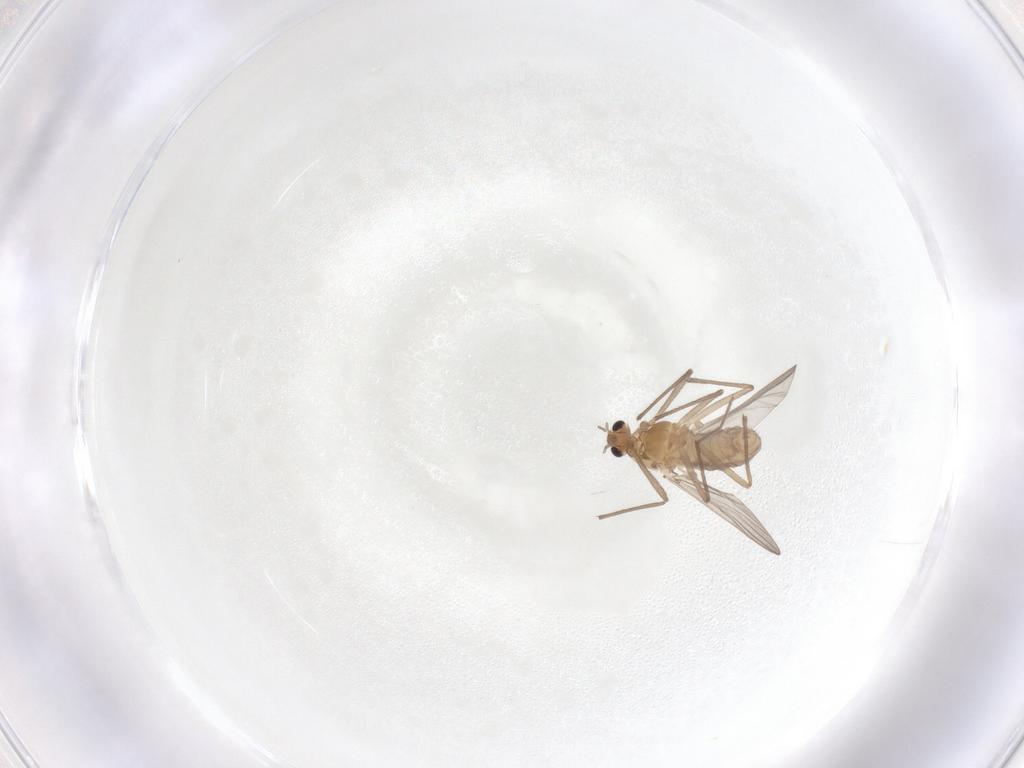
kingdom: Animalia
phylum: Arthropoda
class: Insecta
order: Diptera
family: Chironomidae
